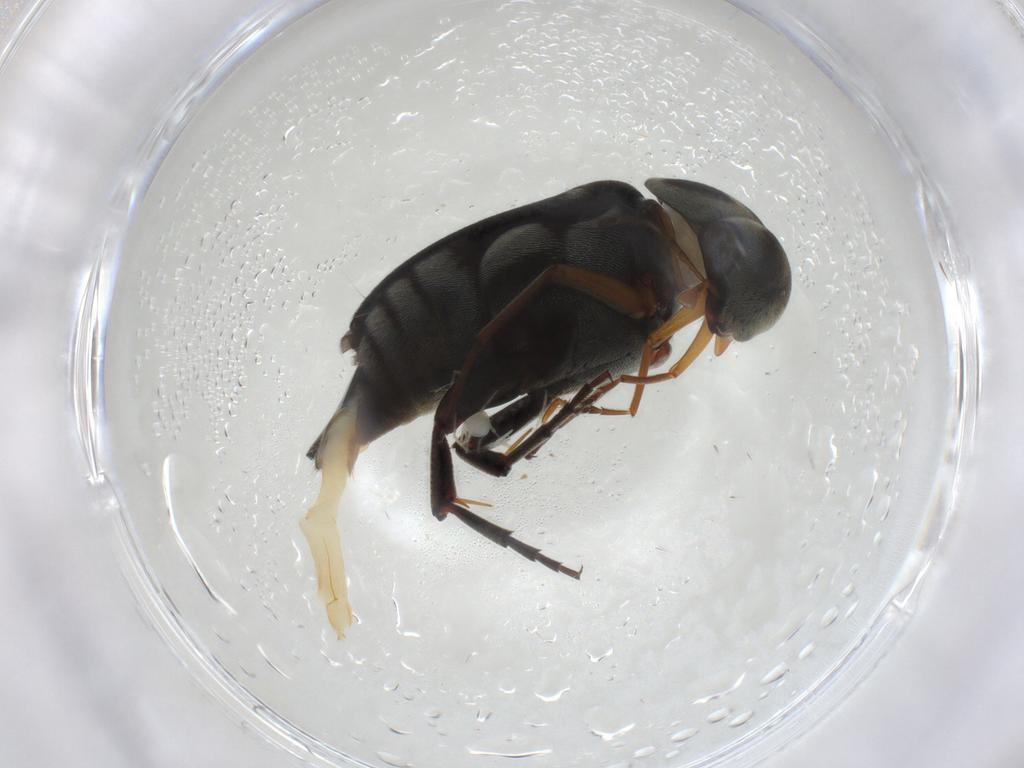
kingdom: Animalia
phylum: Arthropoda
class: Insecta
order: Coleoptera
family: Mordellidae
